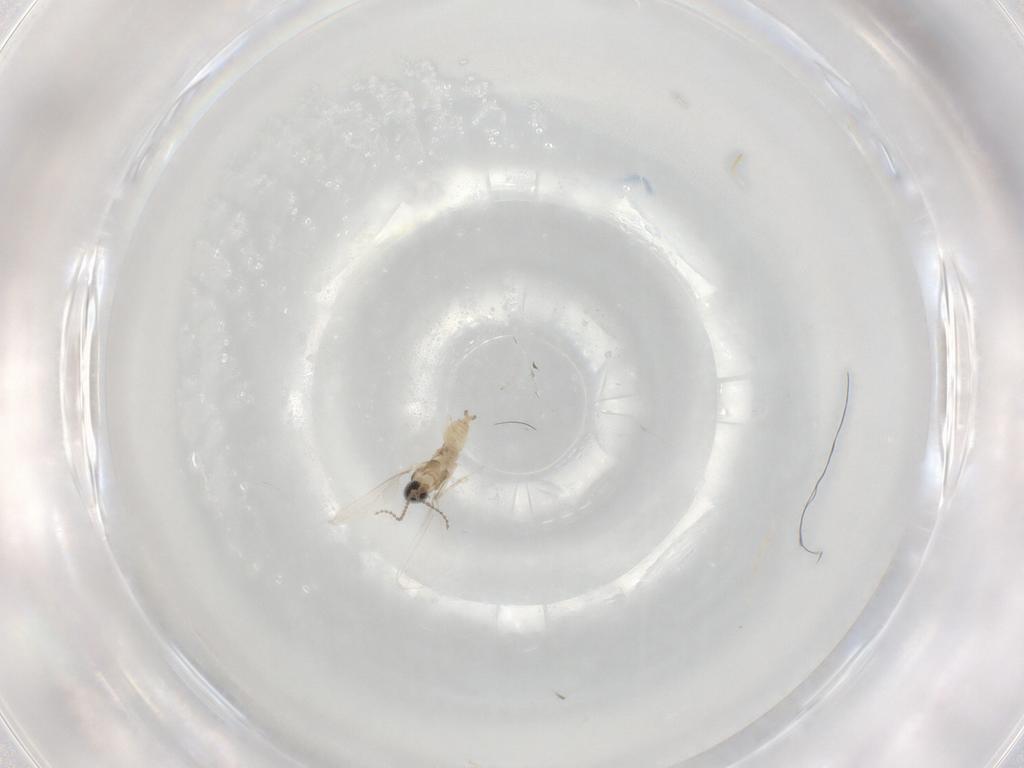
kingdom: Animalia
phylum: Arthropoda
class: Insecta
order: Diptera
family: Cecidomyiidae
